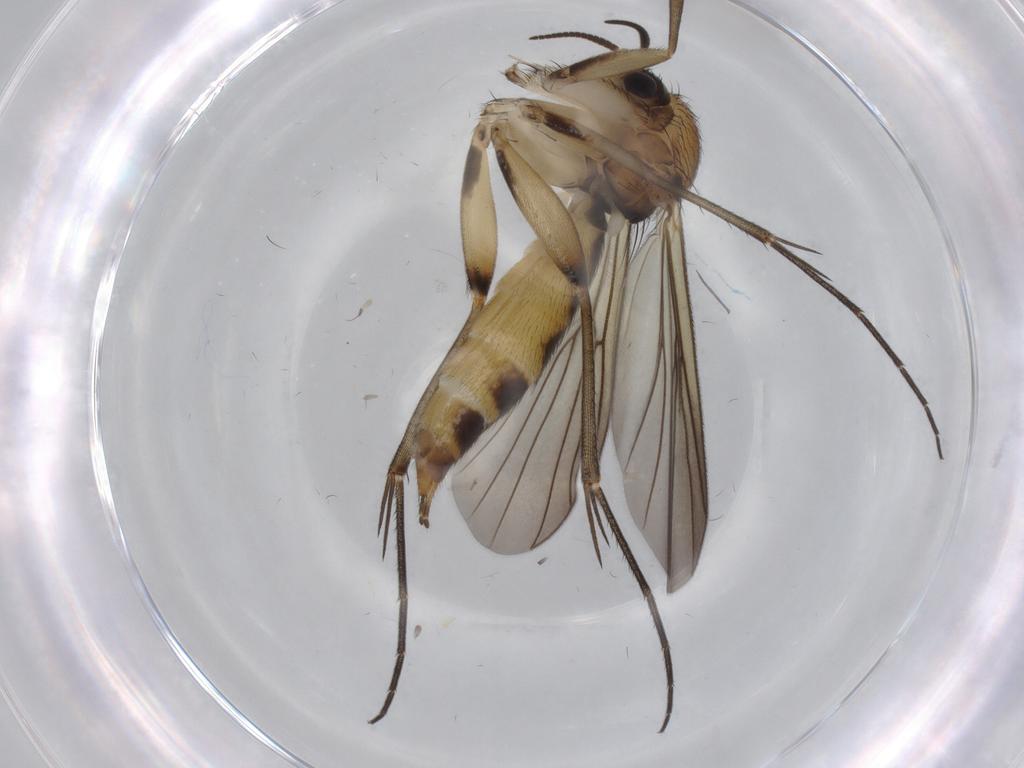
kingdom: Animalia
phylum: Arthropoda
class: Insecta
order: Diptera
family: Mycetophilidae
